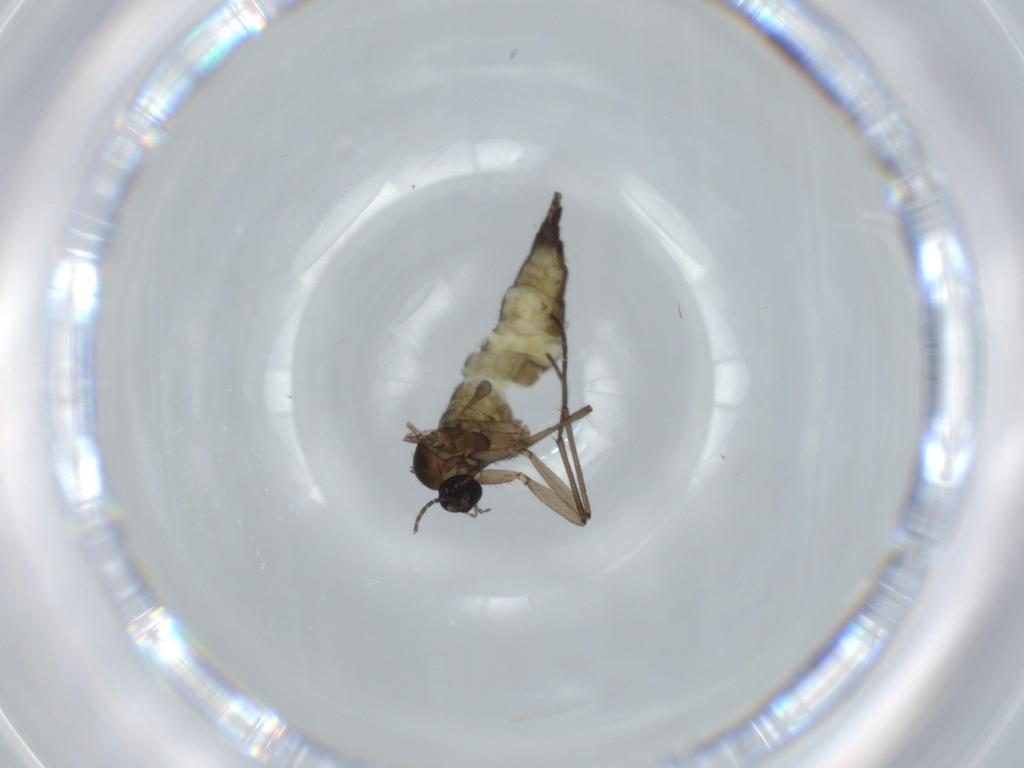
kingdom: Animalia
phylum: Arthropoda
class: Insecta
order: Diptera
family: Sciaridae
